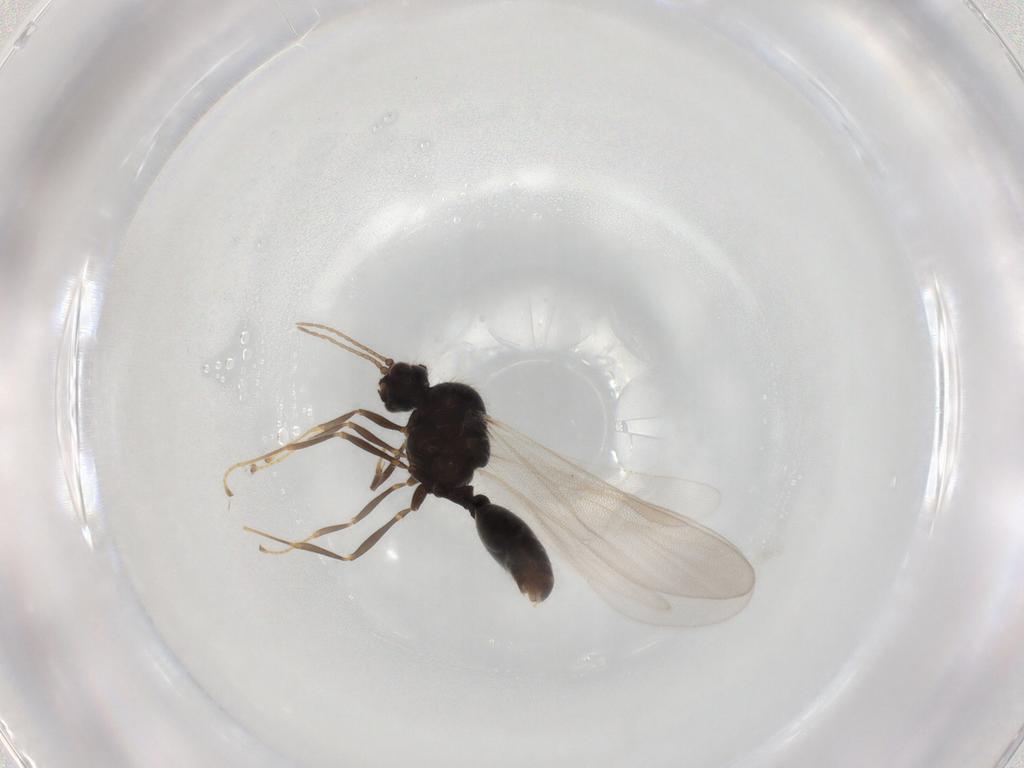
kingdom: Animalia
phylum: Arthropoda
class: Insecta
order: Hymenoptera
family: Formicidae
